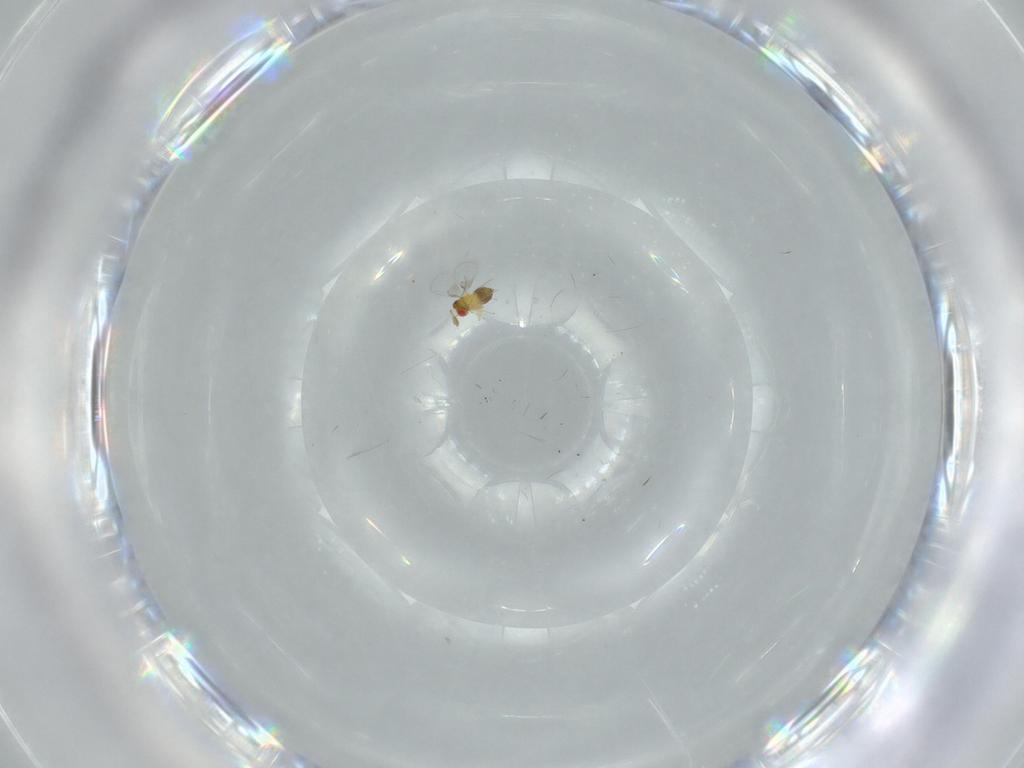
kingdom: Animalia
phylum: Arthropoda
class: Insecta
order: Hymenoptera
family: Trichogrammatidae
